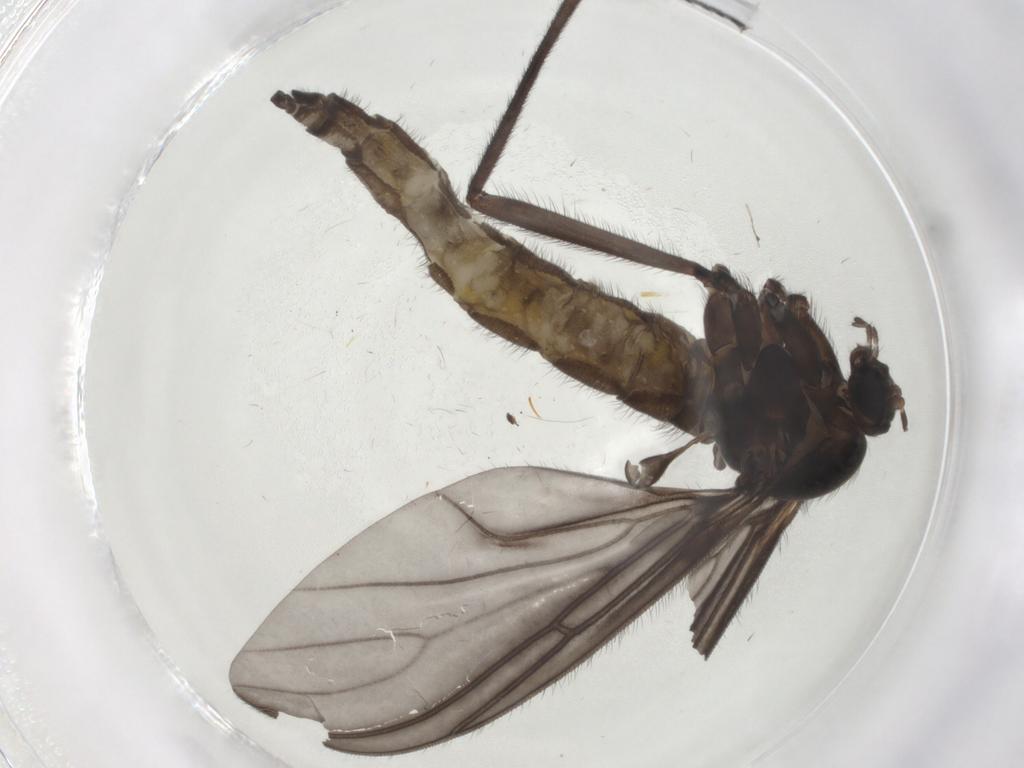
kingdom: Animalia
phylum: Arthropoda
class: Insecta
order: Diptera
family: Sciaridae
